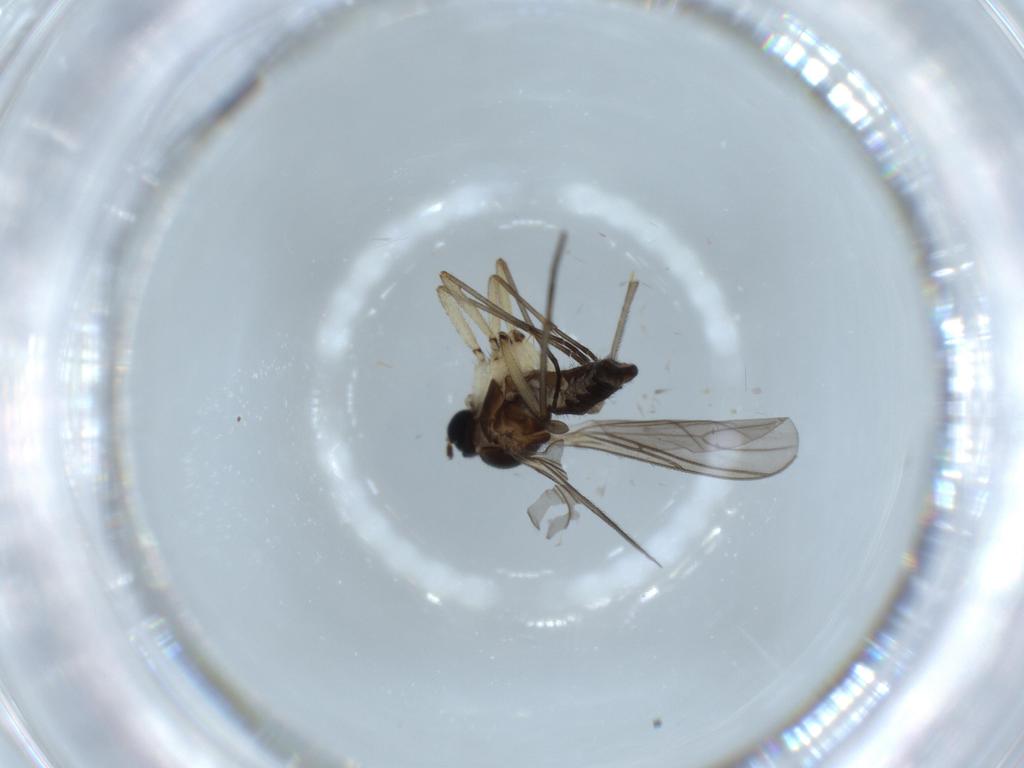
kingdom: Animalia
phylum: Arthropoda
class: Insecta
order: Diptera
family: Sciaridae
